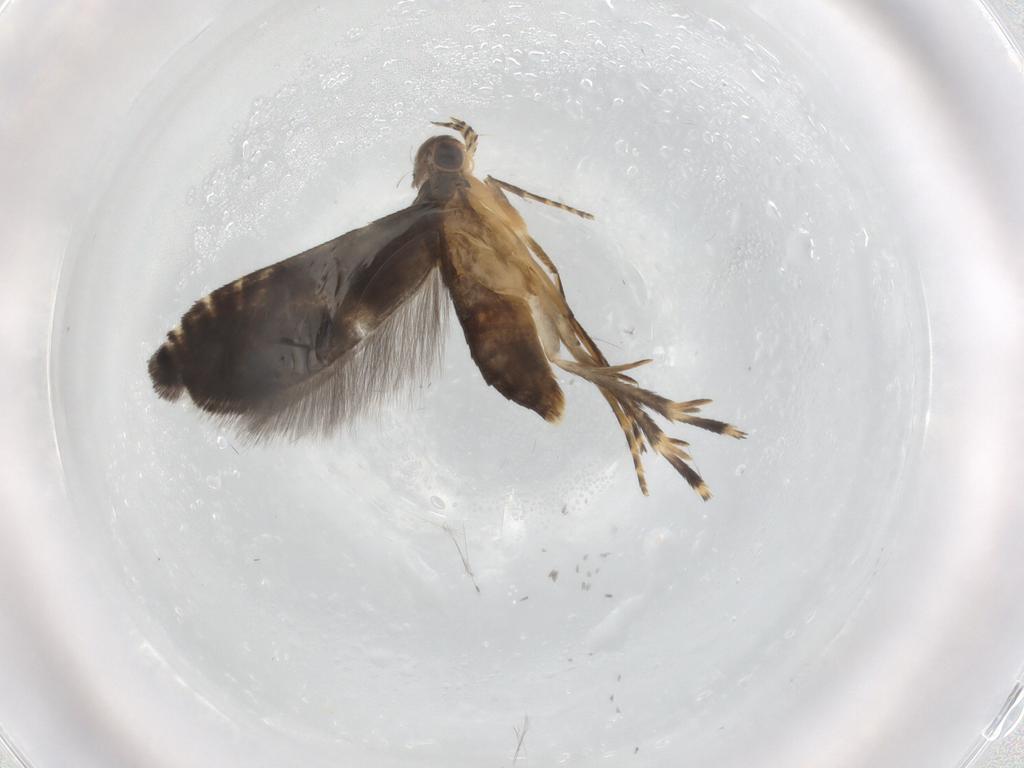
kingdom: Animalia
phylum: Arthropoda
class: Insecta
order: Lepidoptera
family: Glyphipterigidae
